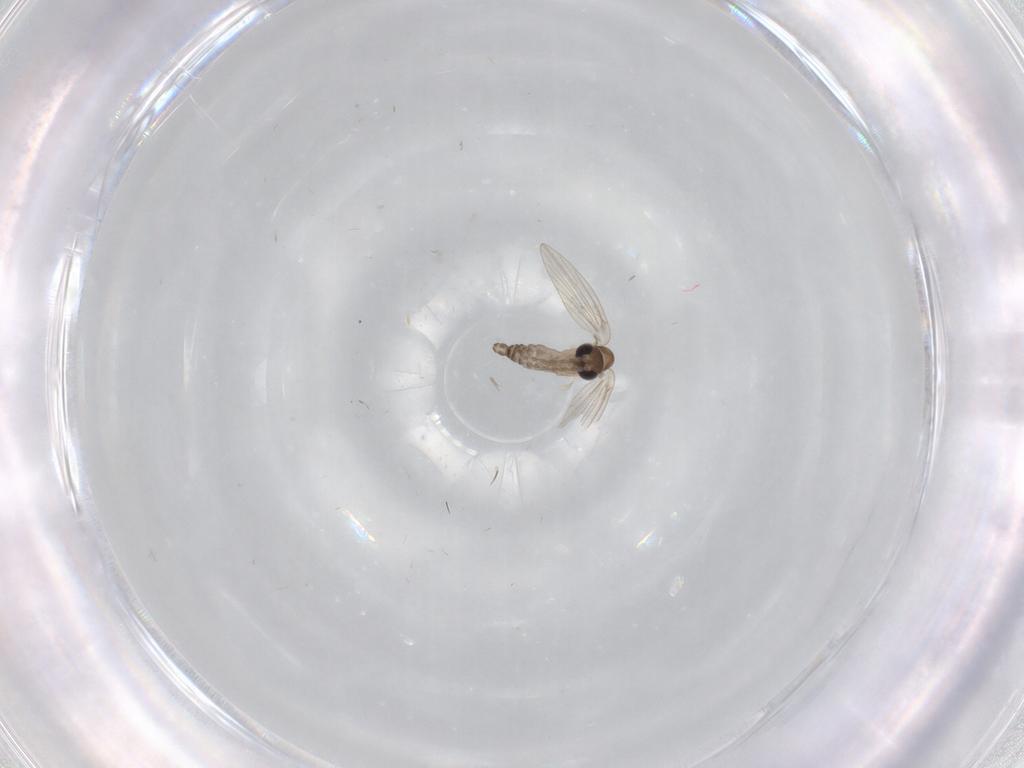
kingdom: Animalia
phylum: Arthropoda
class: Insecta
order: Diptera
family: Psychodidae
